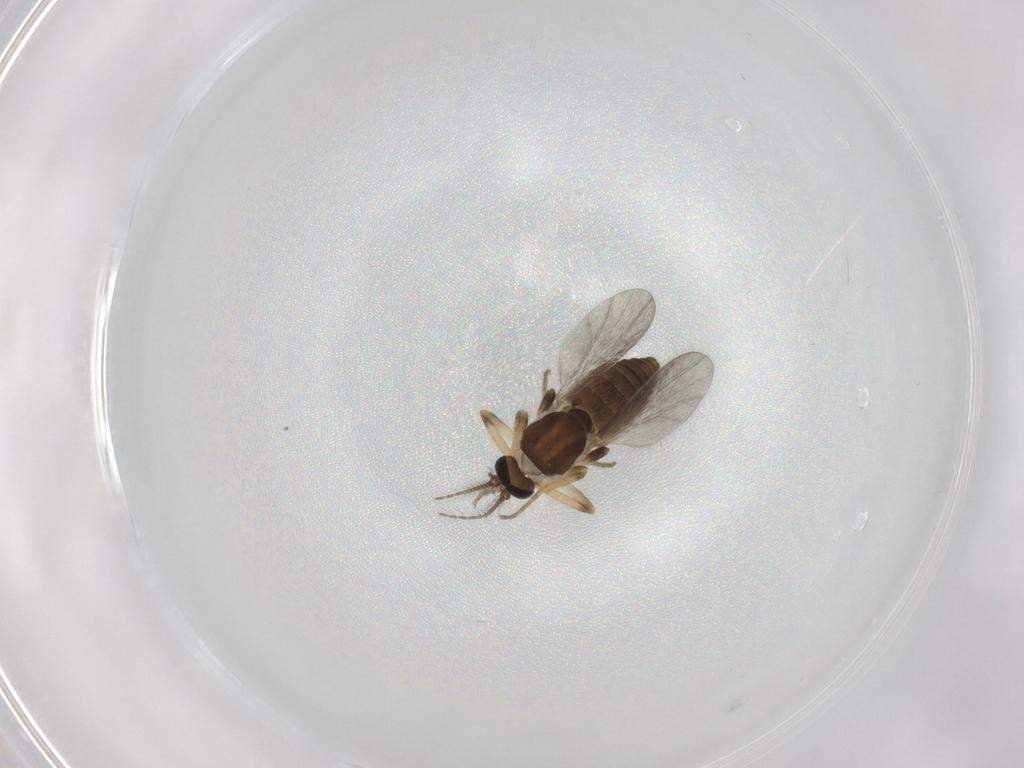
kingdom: Animalia
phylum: Arthropoda
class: Insecta
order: Diptera
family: Ceratopogonidae
